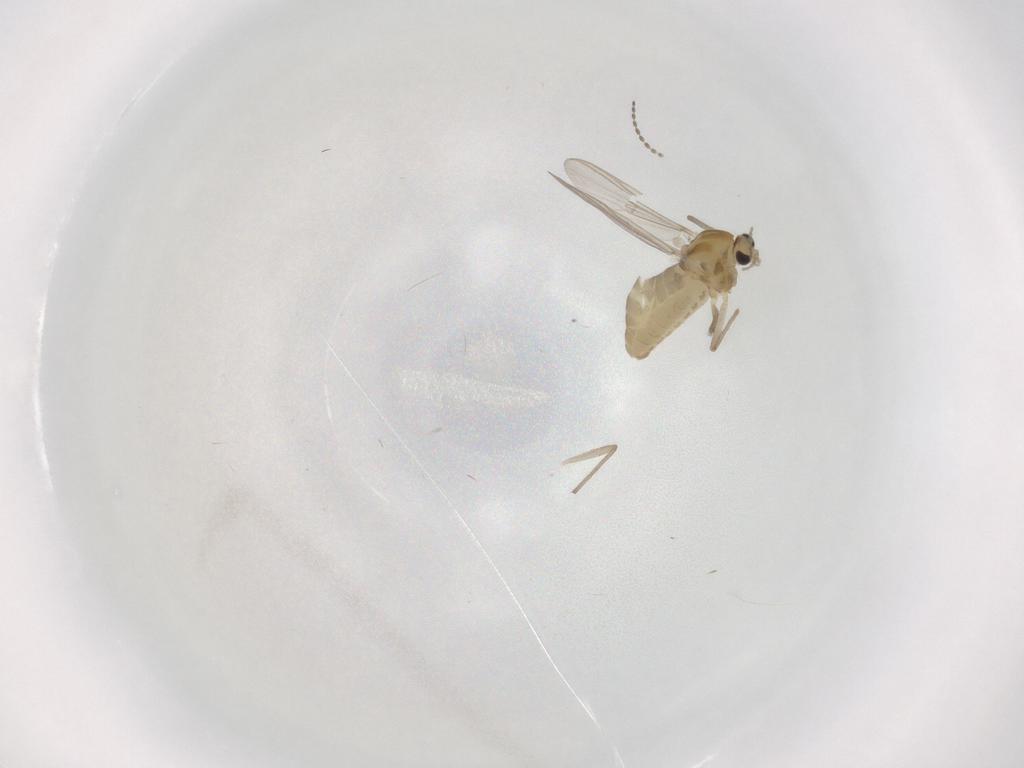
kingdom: Animalia
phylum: Arthropoda
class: Insecta
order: Diptera
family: Chironomidae
